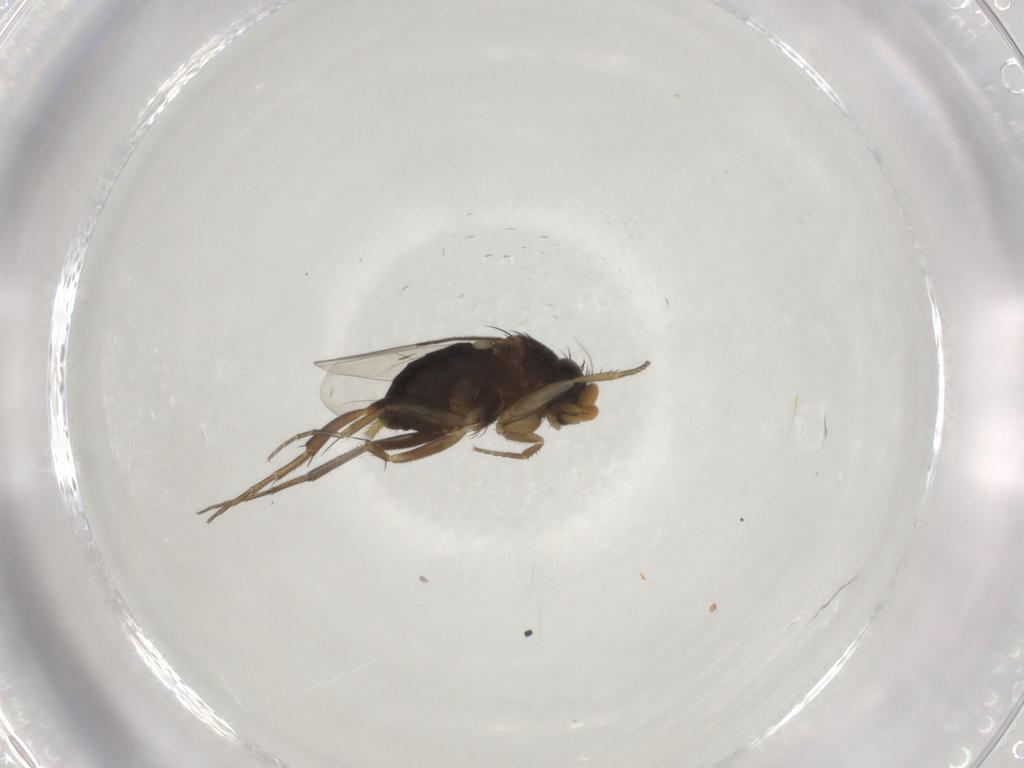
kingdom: Animalia
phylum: Arthropoda
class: Insecta
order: Diptera
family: Phoridae
